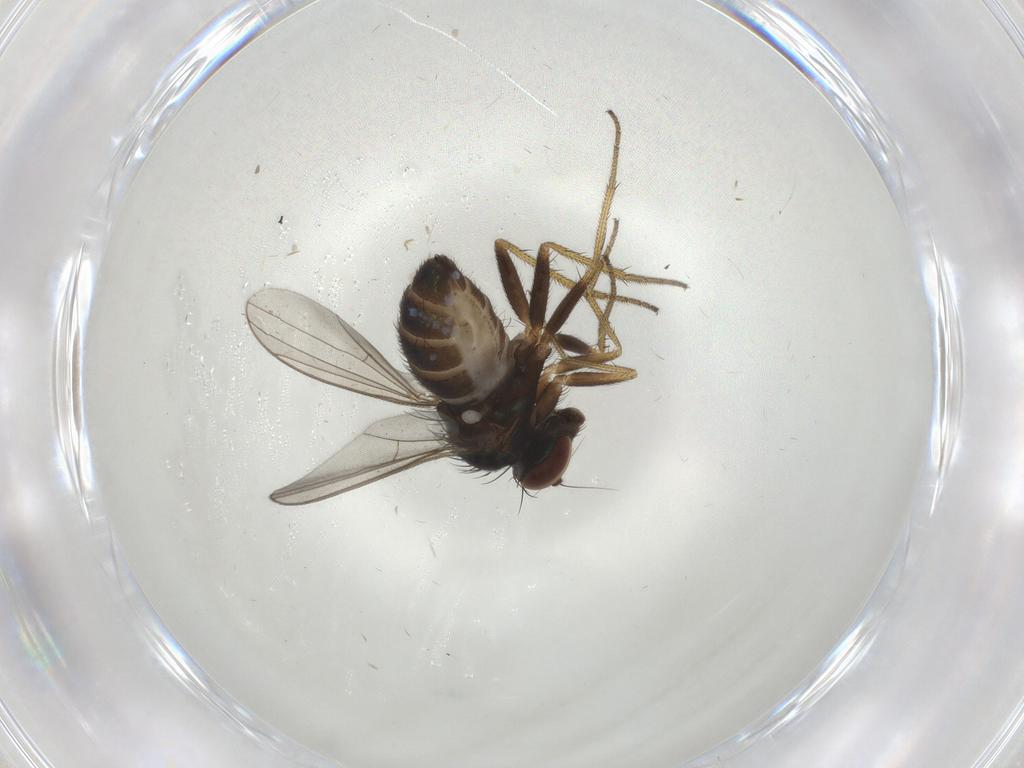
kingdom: Animalia
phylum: Arthropoda
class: Insecta
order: Diptera
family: Dolichopodidae
